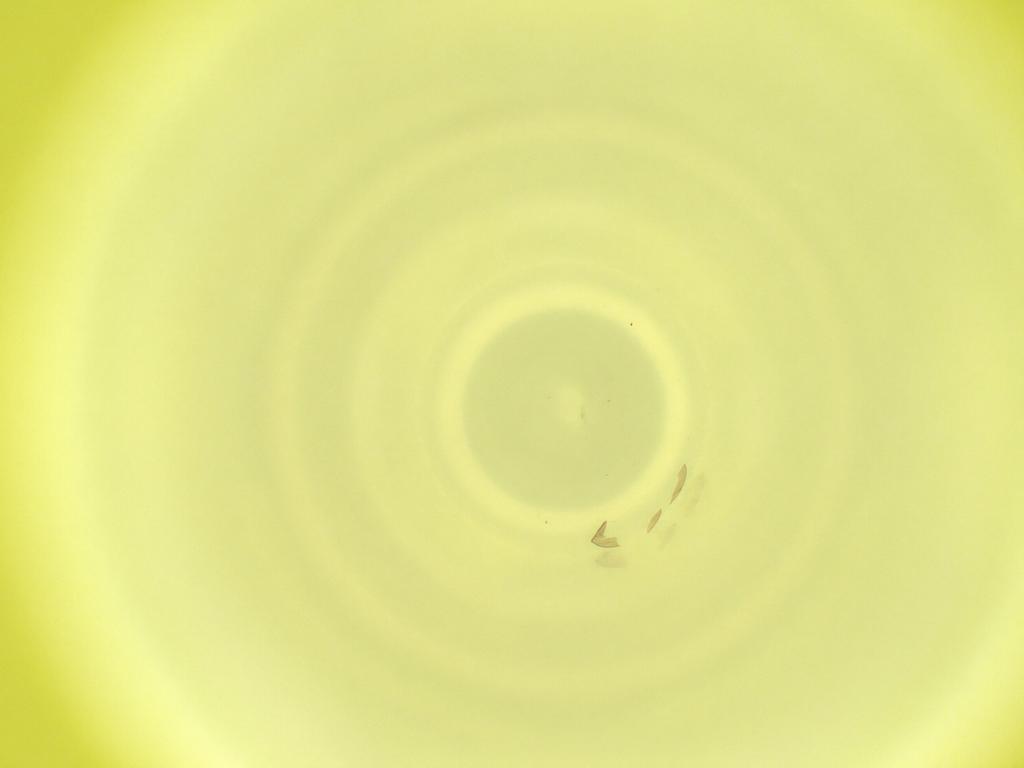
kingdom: Animalia
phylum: Arthropoda
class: Insecta
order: Diptera
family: Cecidomyiidae
